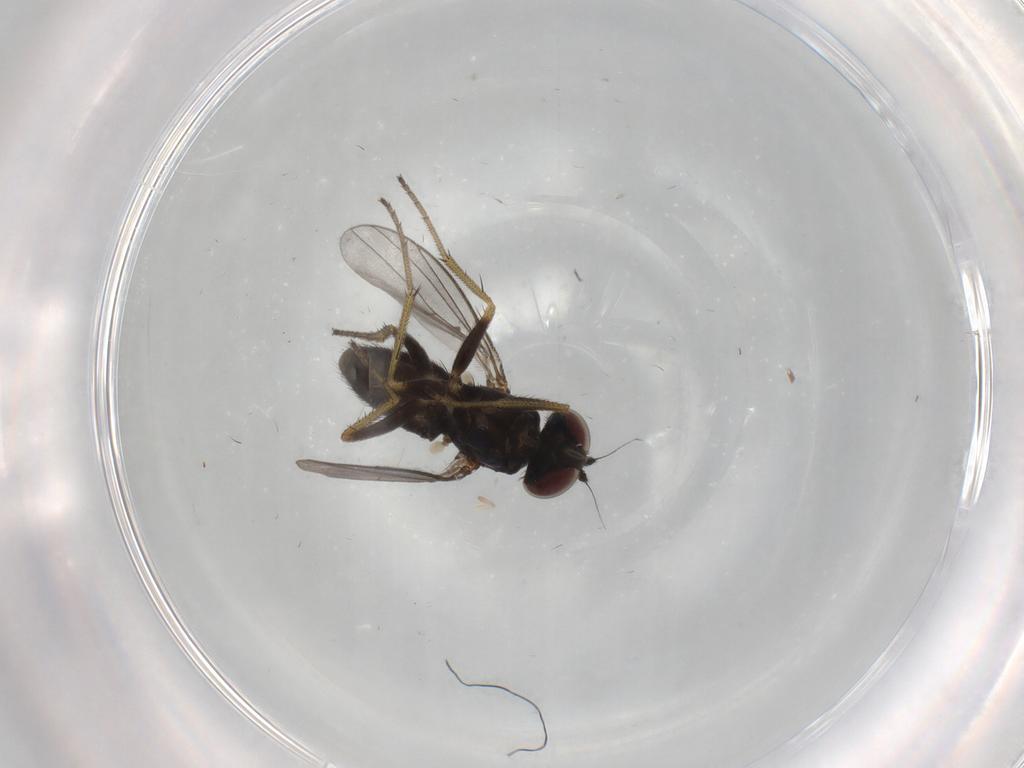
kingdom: Animalia
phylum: Arthropoda
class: Insecta
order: Diptera
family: Dolichopodidae
